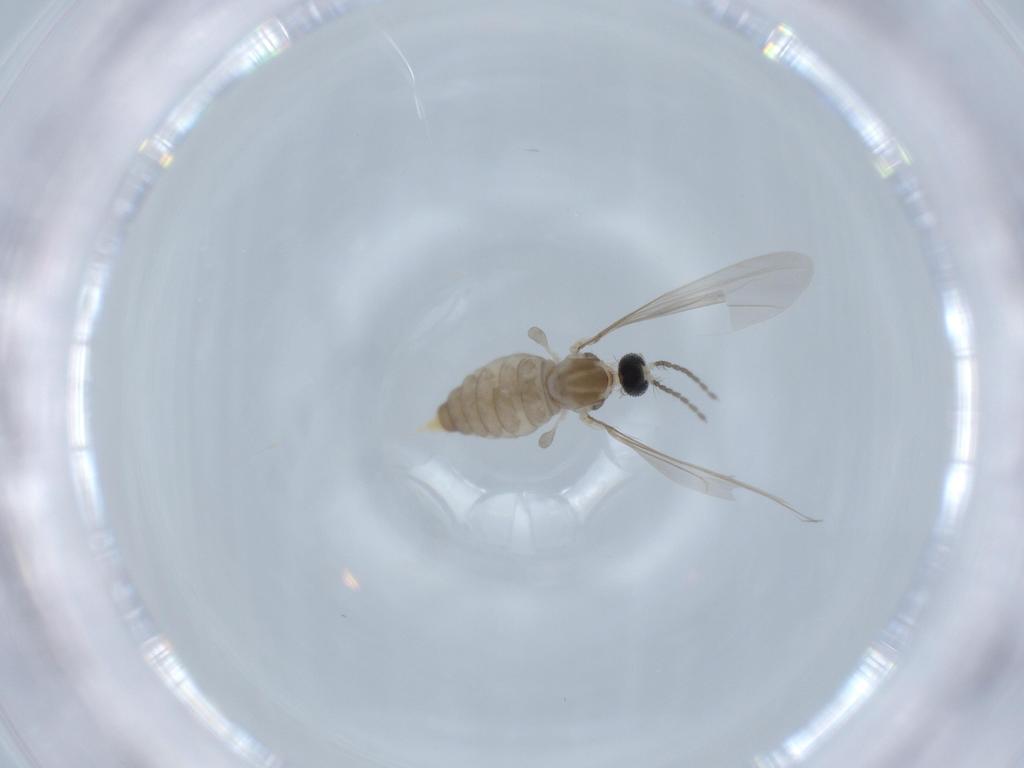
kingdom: Animalia
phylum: Arthropoda
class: Insecta
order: Diptera
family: Cecidomyiidae
